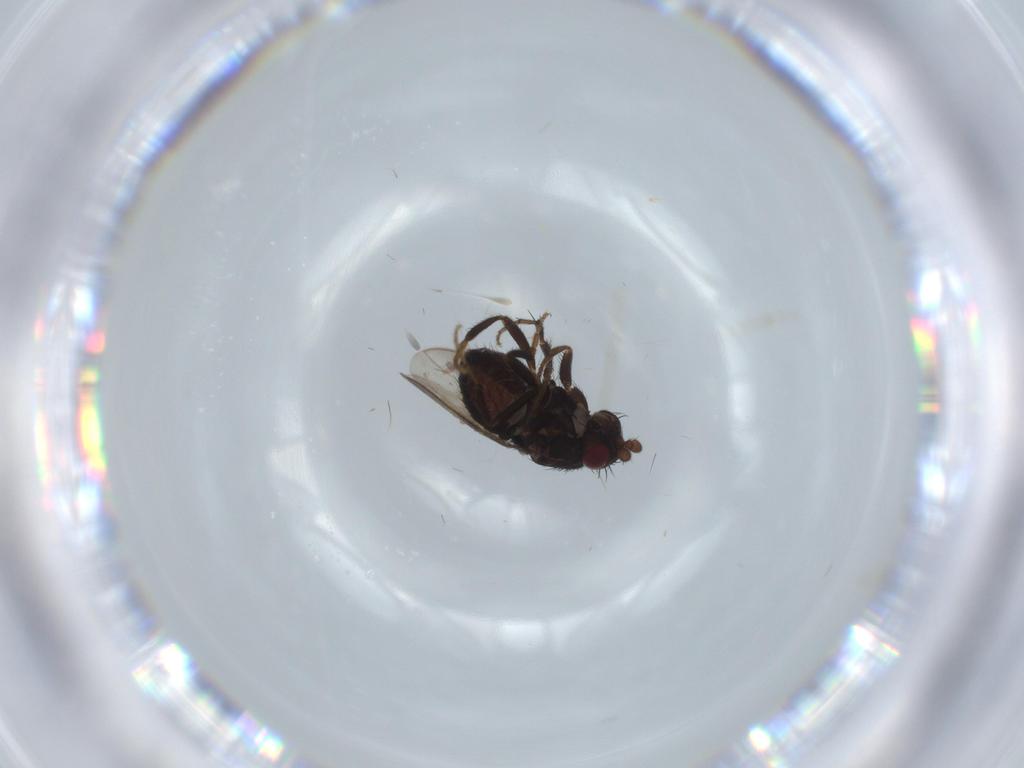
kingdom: Animalia
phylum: Arthropoda
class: Insecta
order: Diptera
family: Sphaeroceridae
